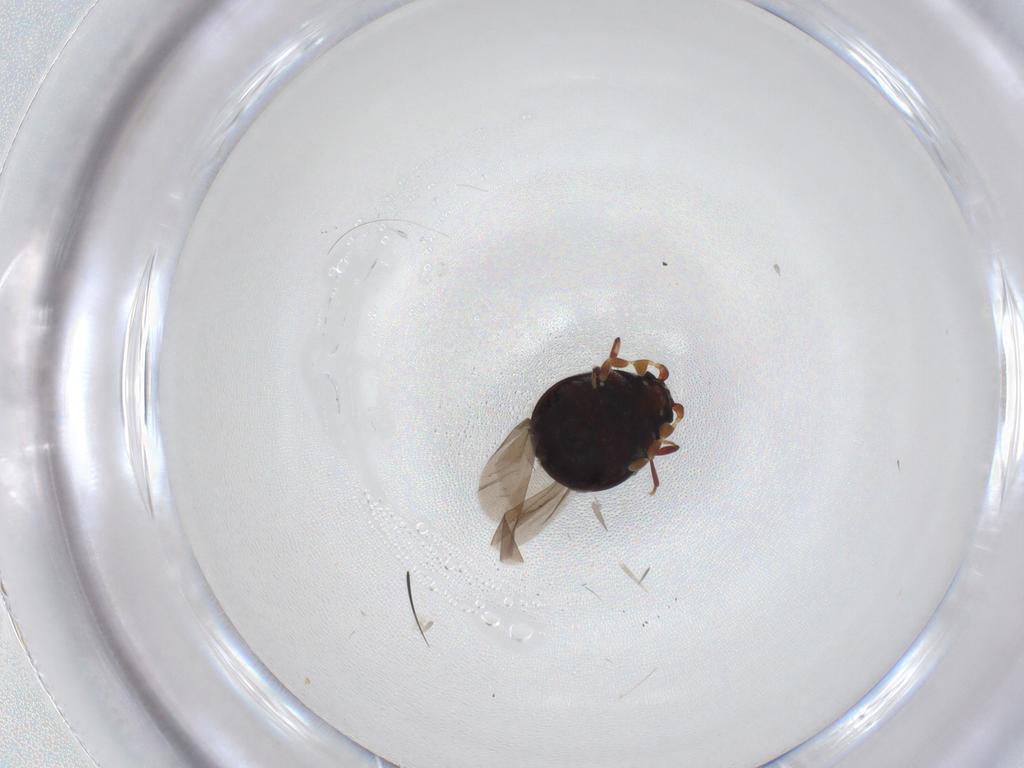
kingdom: Animalia
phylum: Arthropoda
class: Insecta
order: Coleoptera
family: Ptinidae
